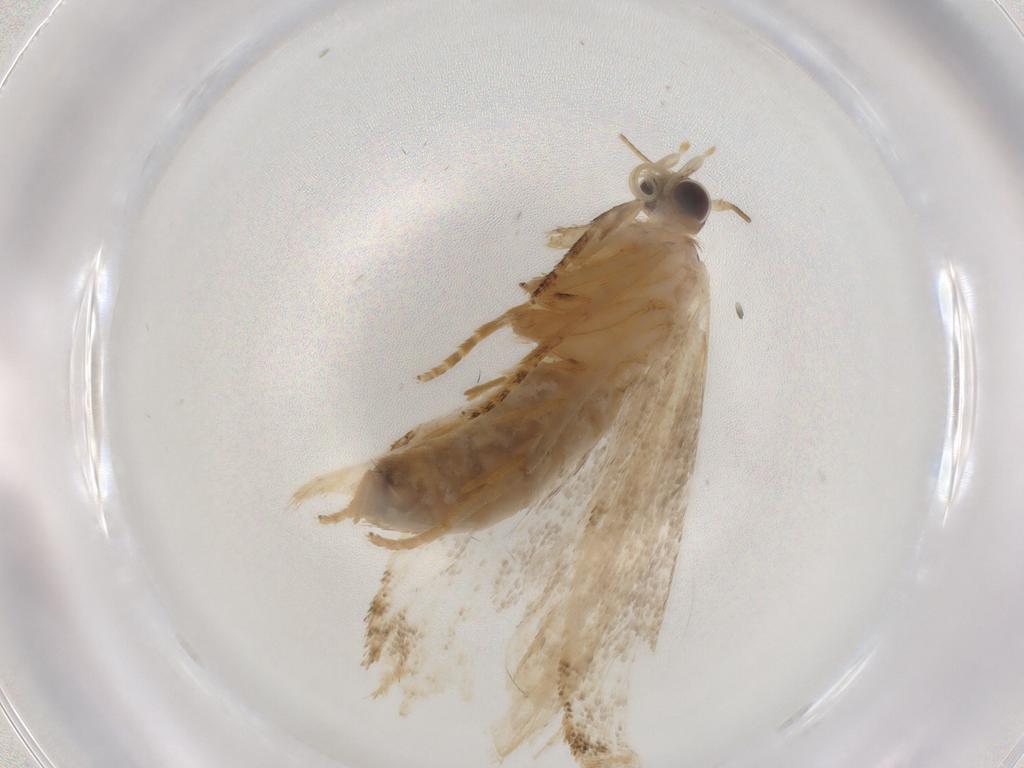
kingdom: Animalia
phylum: Arthropoda
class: Insecta
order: Lepidoptera
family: Tortricidae
